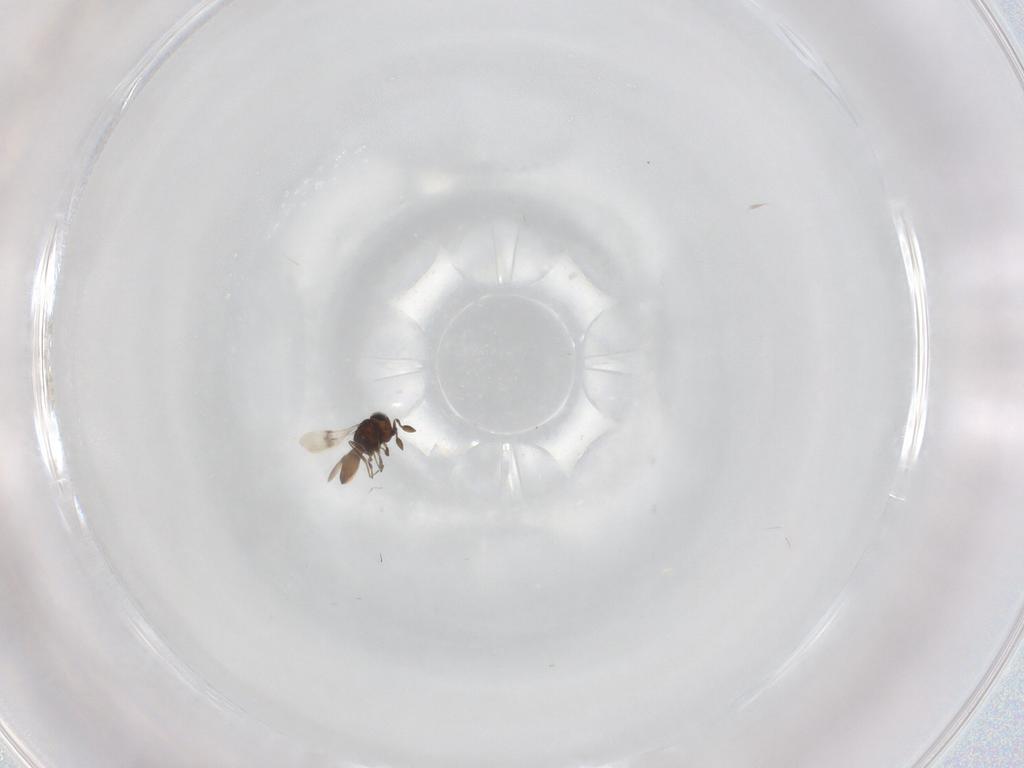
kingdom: Animalia
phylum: Arthropoda
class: Insecta
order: Hymenoptera
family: Scelionidae
